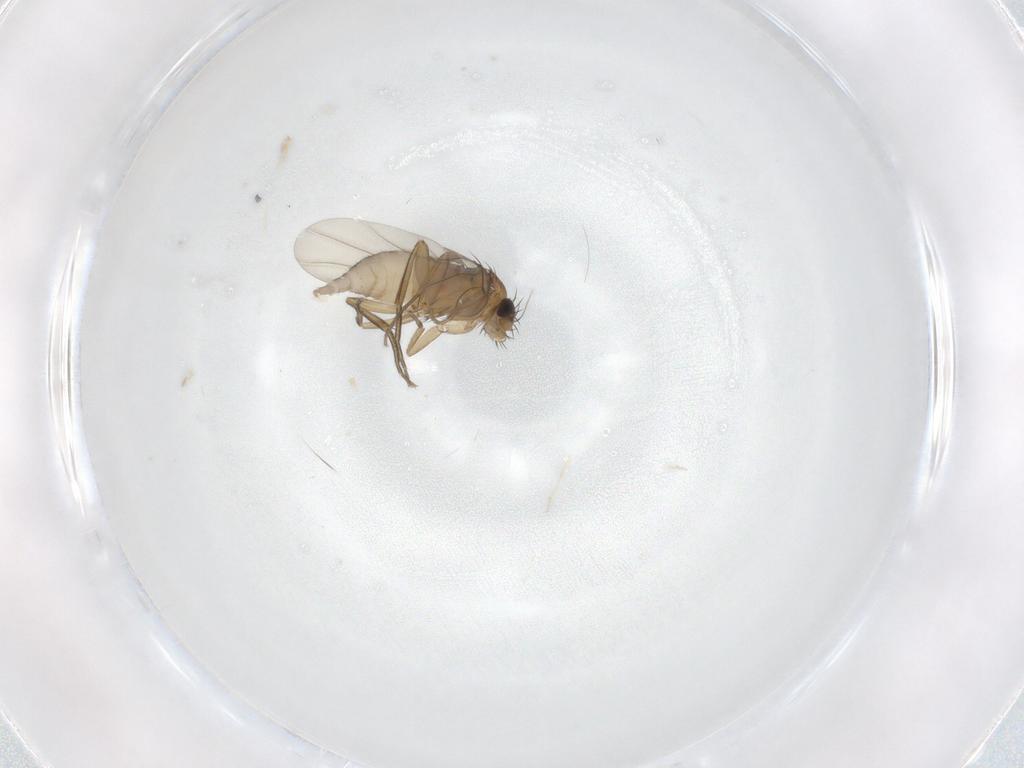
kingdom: Animalia
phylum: Arthropoda
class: Insecta
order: Diptera
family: Phoridae
